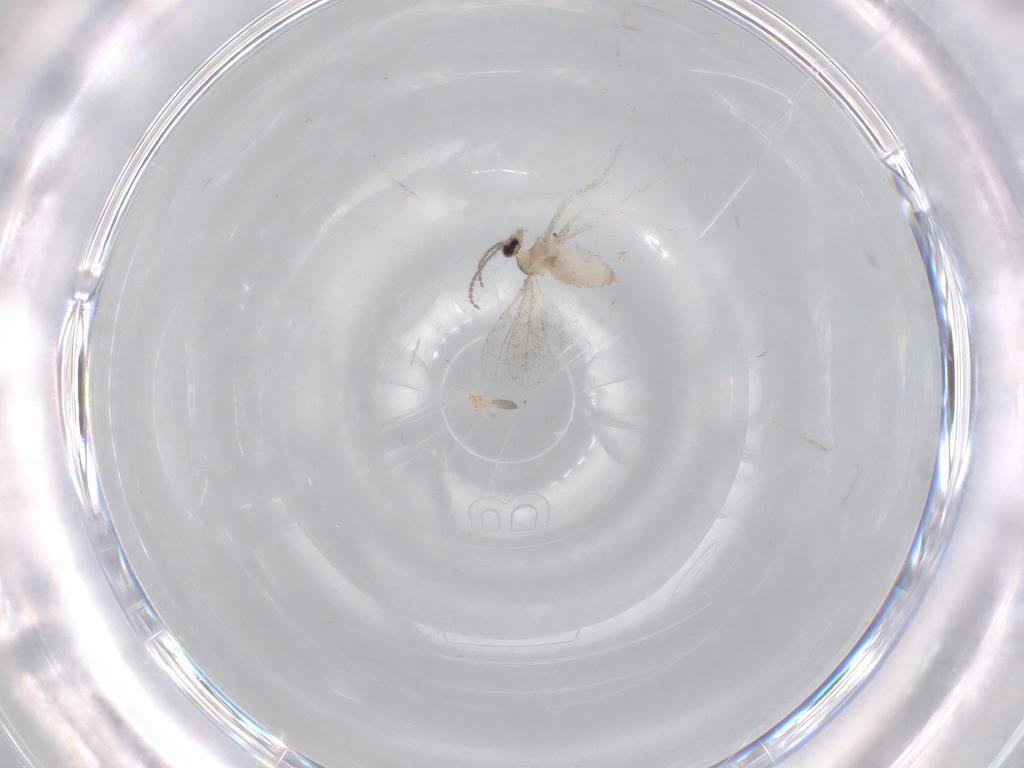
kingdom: Animalia
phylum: Arthropoda
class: Insecta
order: Diptera
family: Cecidomyiidae
